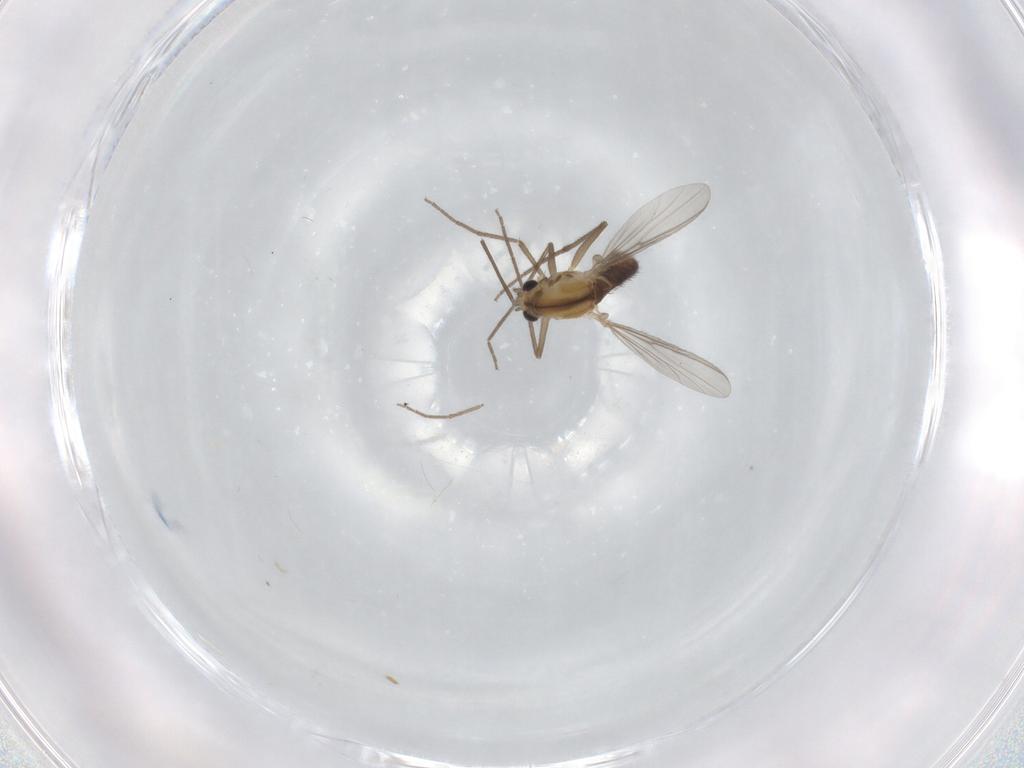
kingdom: Animalia
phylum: Arthropoda
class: Insecta
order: Diptera
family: Chironomidae
